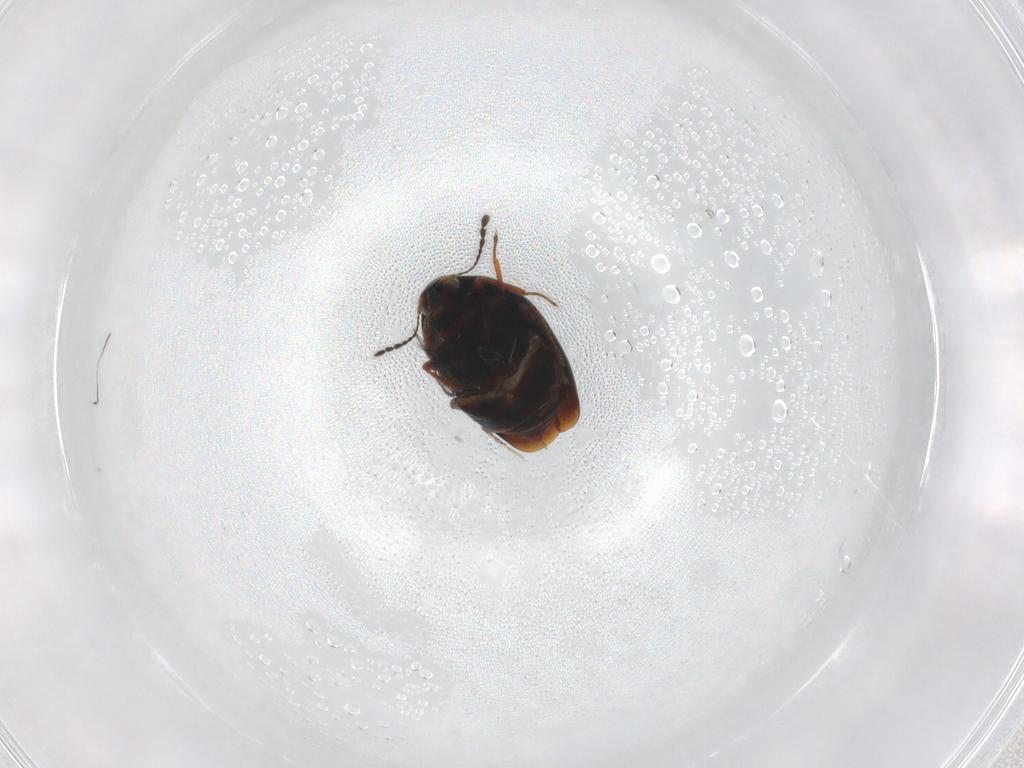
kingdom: Animalia
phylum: Arthropoda
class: Insecta
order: Coleoptera
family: Staphylinidae
